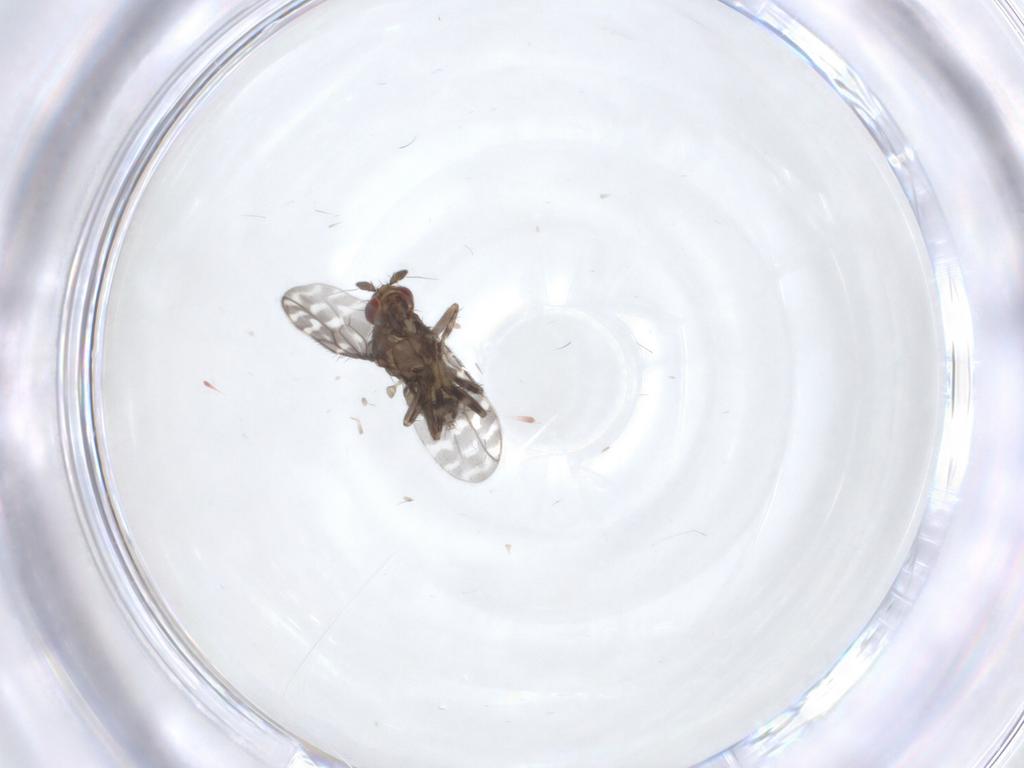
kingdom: Animalia
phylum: Arthropoda
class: Insecta
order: Diptera
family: Sphaeroceridae
